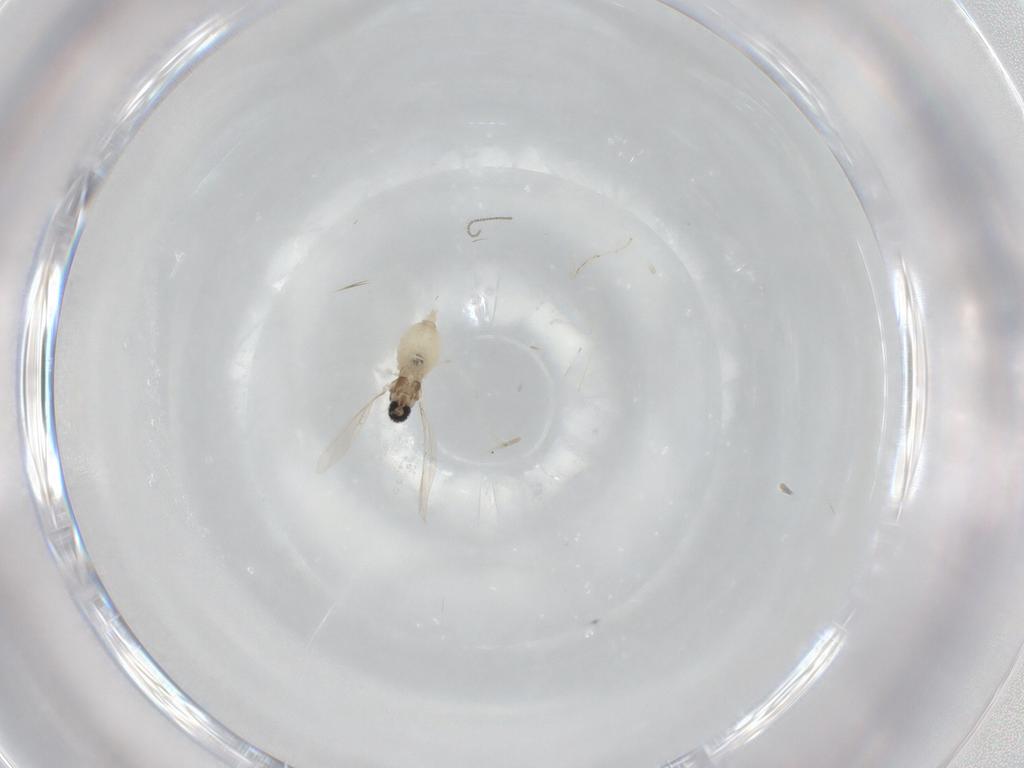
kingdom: Animalia
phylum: Arthropoda
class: Insecta
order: Diptera
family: Cecidomyiidae
